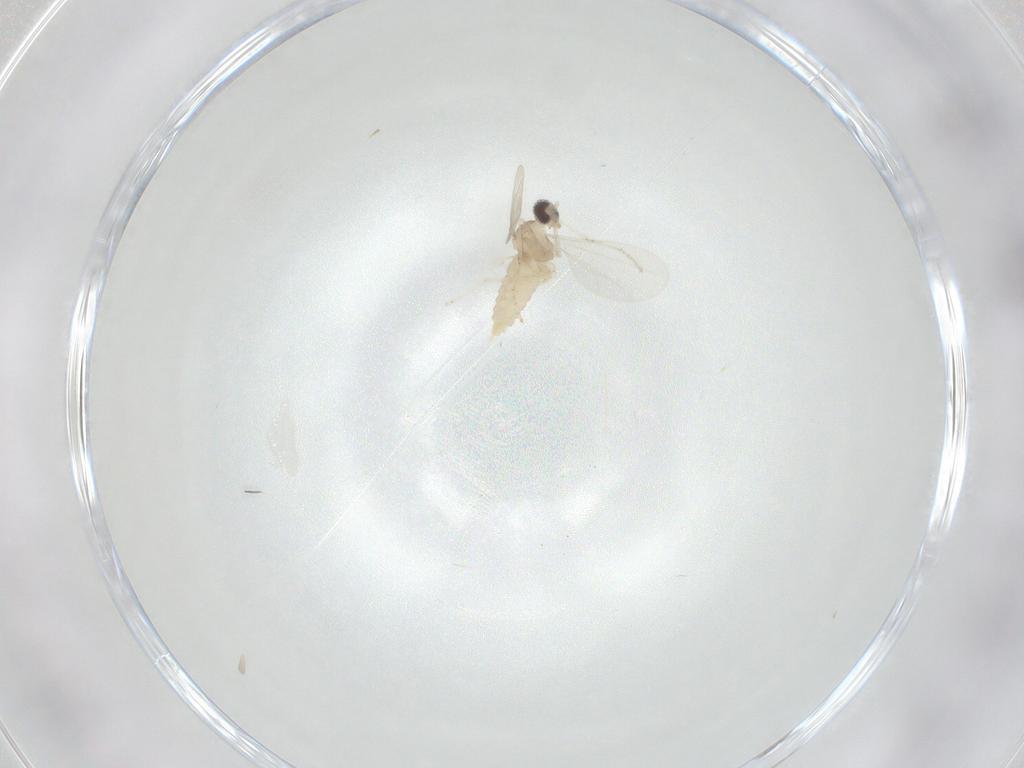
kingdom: Animalia
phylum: Arthropoda
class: Insecta
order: Diptera
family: Cecidomyiidae
